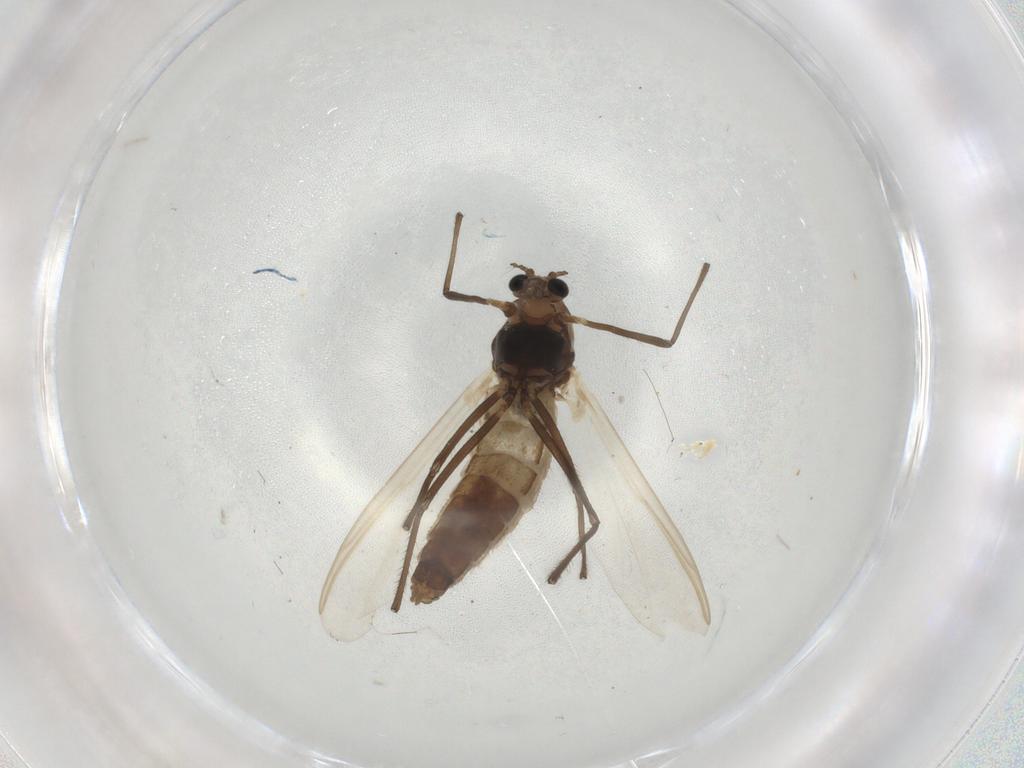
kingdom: Animalia
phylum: Arthropoda
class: Insecta
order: Diptera
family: Chironomidae
